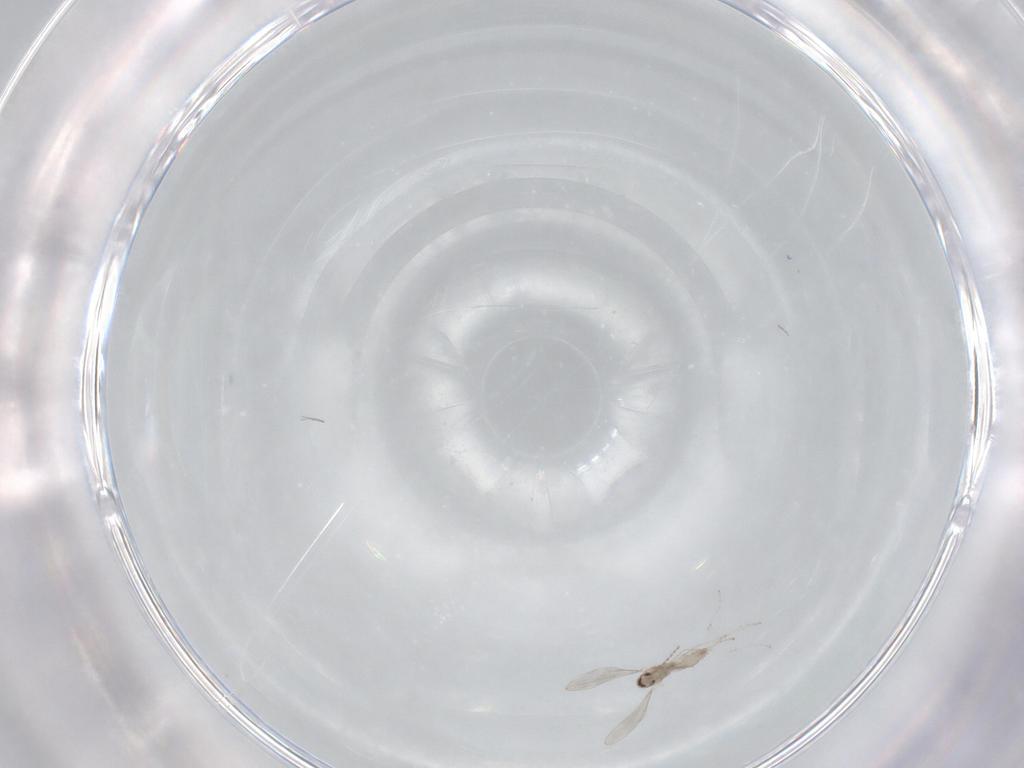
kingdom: Animalia
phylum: Arthropoda
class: Insecta
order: Diptera
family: Cecidomyiidae
